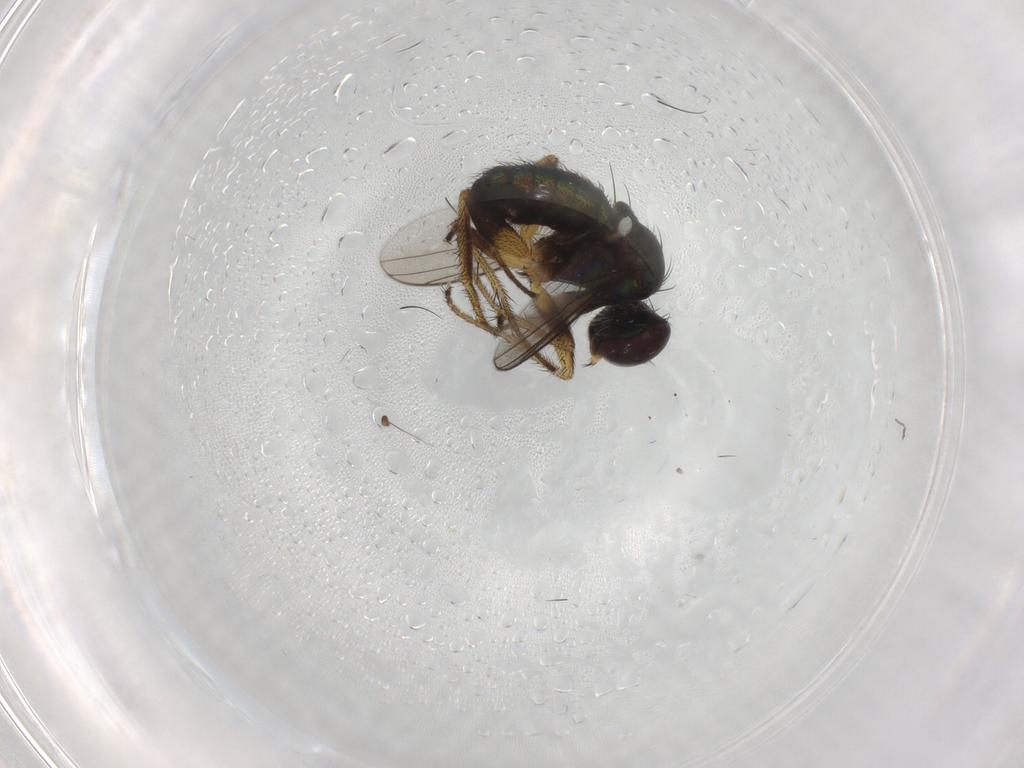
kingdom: Animalia
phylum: Arthropoda
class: Insecta
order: Diptera
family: Dolichopodidae
